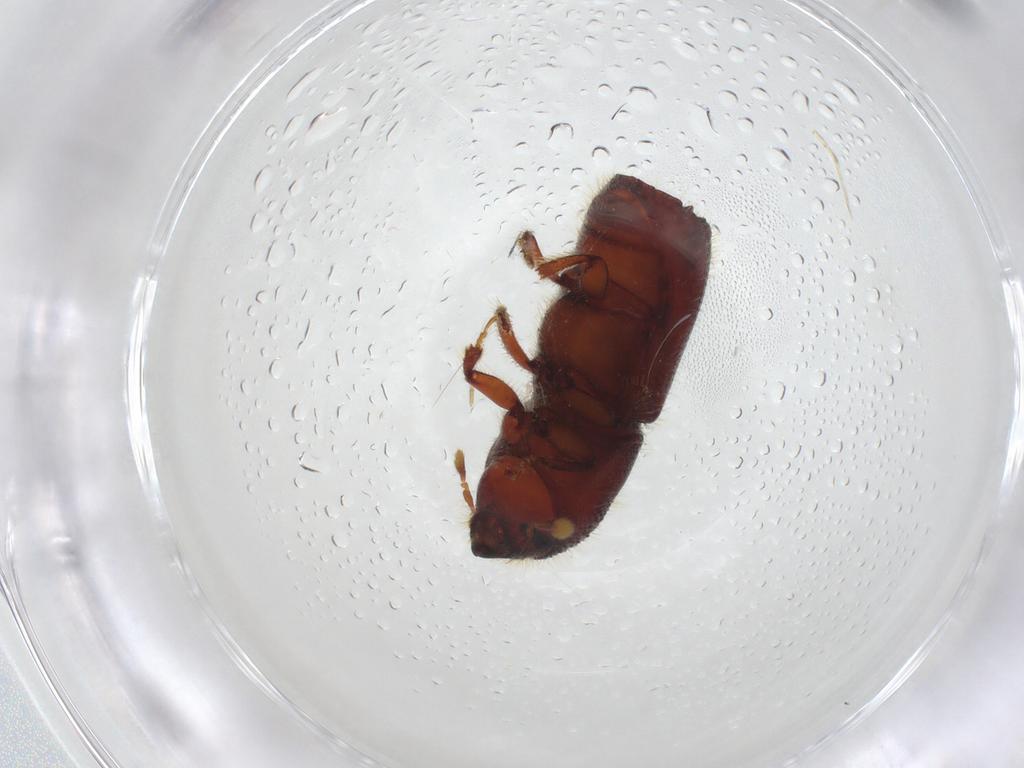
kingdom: Animalia
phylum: Arthropoda
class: Insecta
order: Coleoptera
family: Curculionidae
